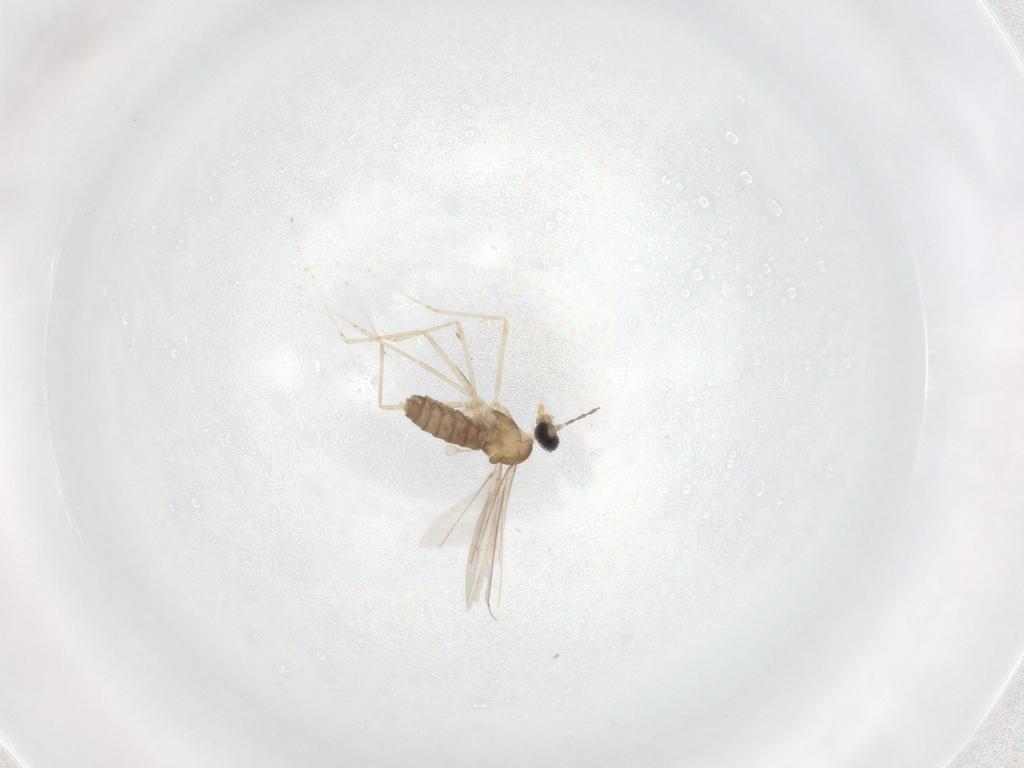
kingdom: Animalia
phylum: Arthropoda
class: Insecta
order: Diptera
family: Cecidomyiidae
